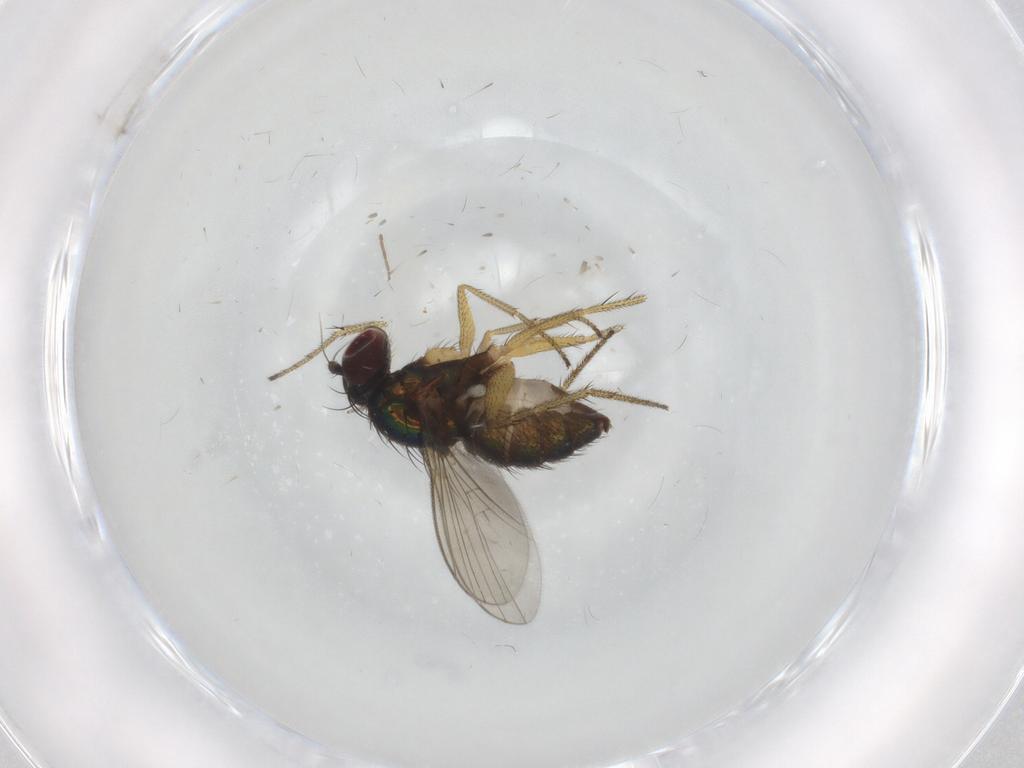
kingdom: Animalia
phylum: Arthropoda
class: Insecta
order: Diptera
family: Chironomidae
